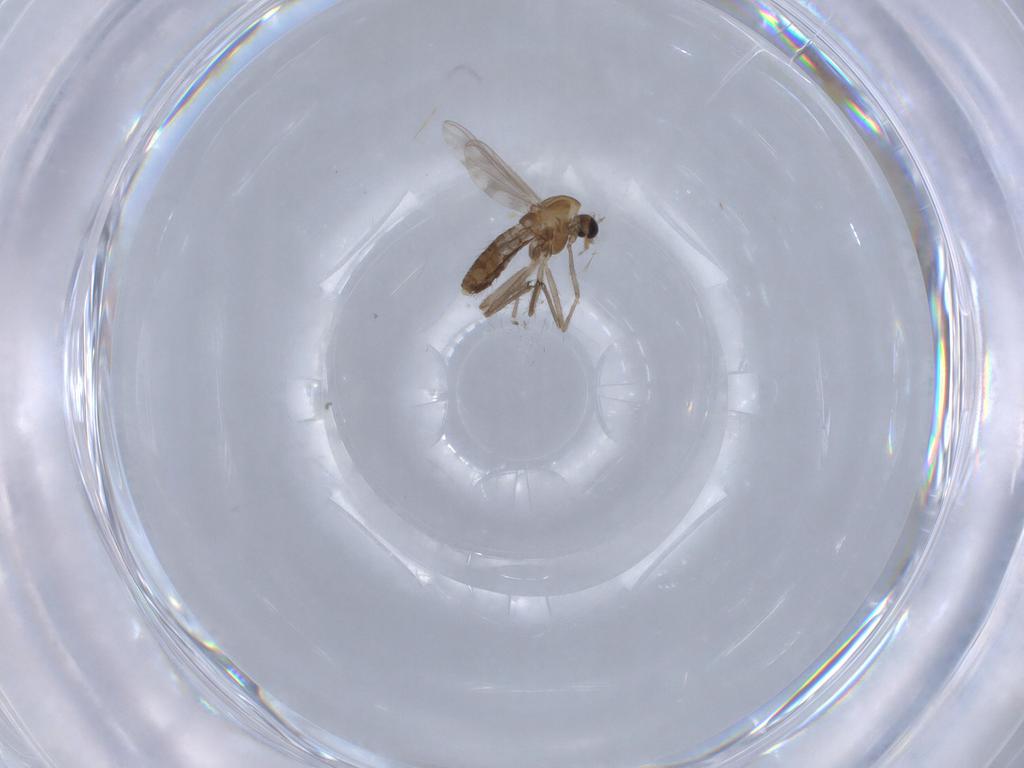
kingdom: Animalia
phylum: Arthropoda
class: Insecta
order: Diptera
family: Chironomidae
